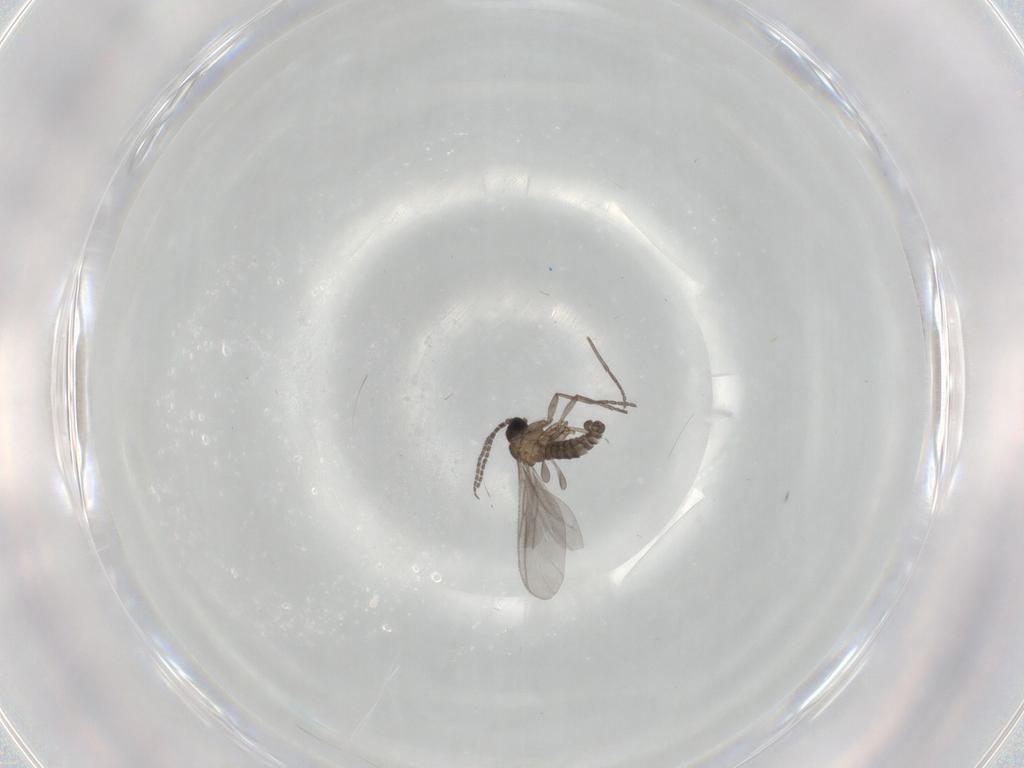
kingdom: Animalia
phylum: Arthropoda
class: Insecta
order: Diptera
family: Sciaridae
